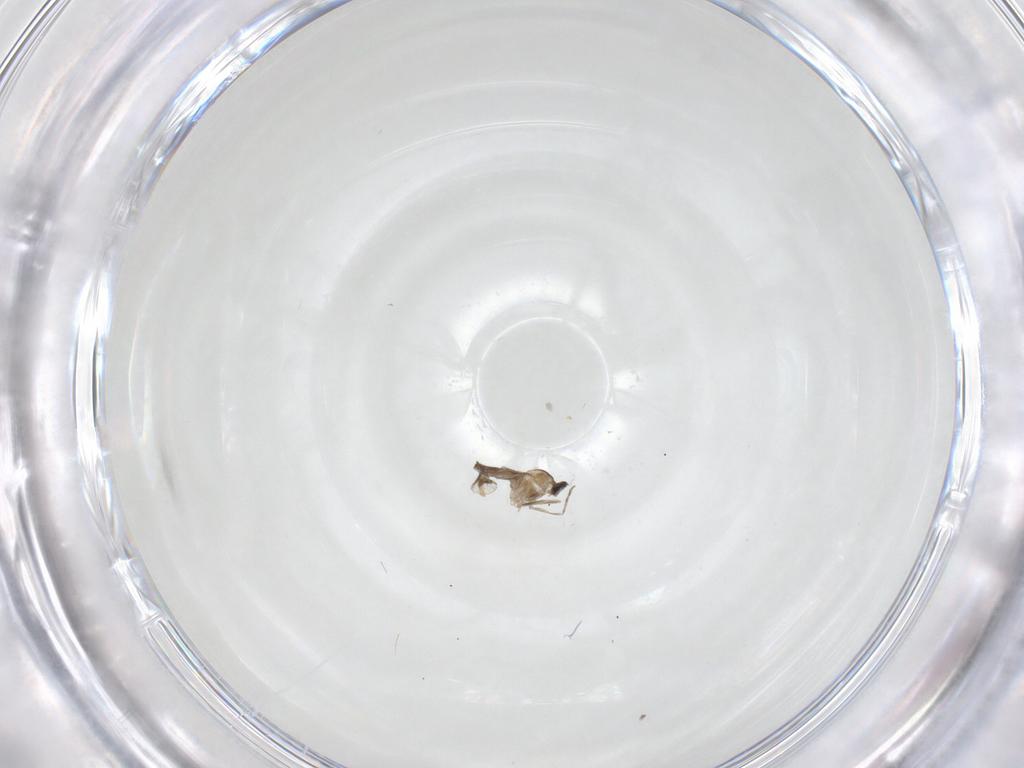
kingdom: Animalia
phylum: Arthropoda
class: Insecta
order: Diptera
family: Cecidomyiidae
